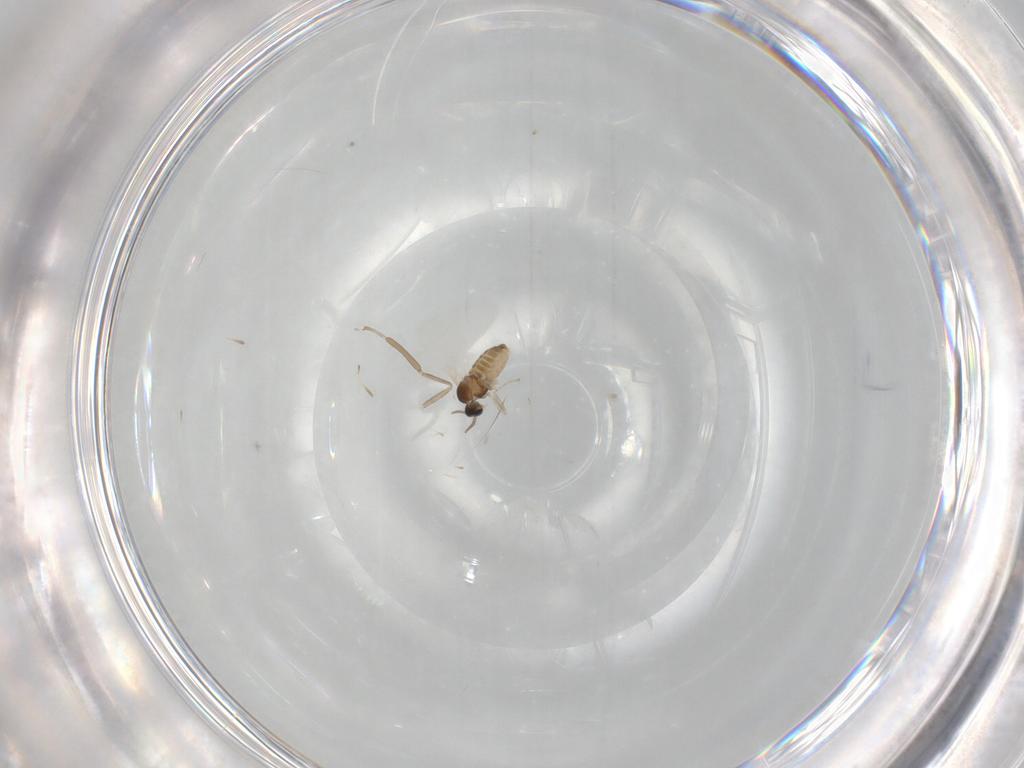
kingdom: Animalia
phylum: Arthropoda
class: Insecta
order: Diptera
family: Cecidomyiidae
